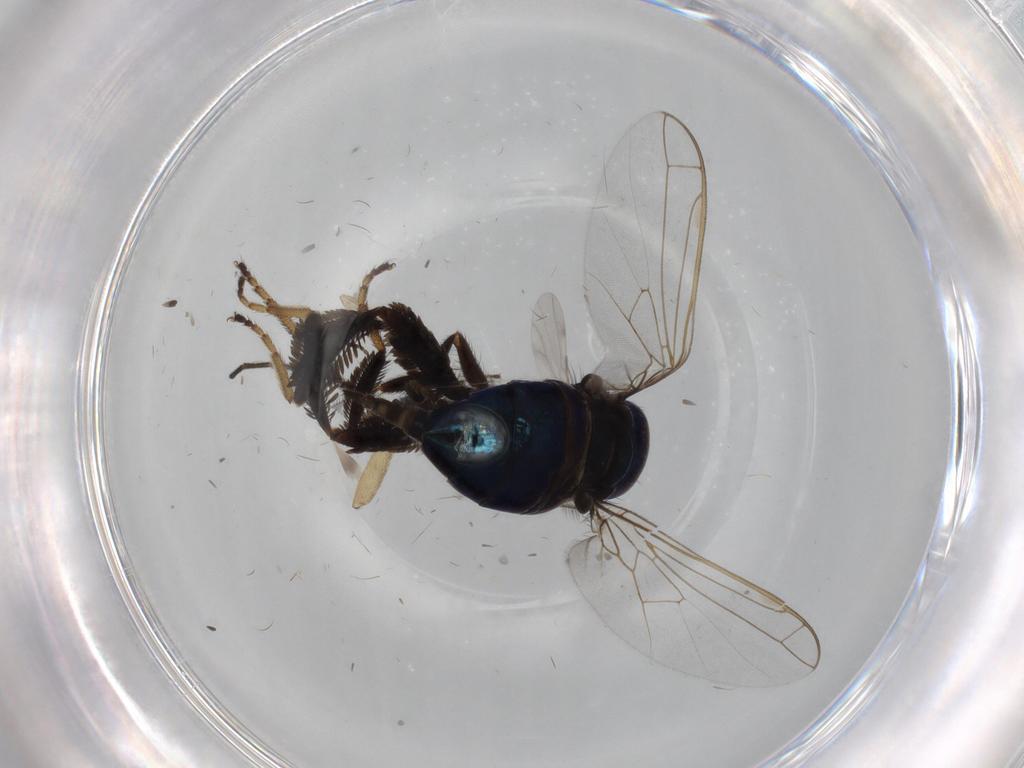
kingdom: Animalia
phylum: Arthropoda
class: Insecta
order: Diptera
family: Empididae
